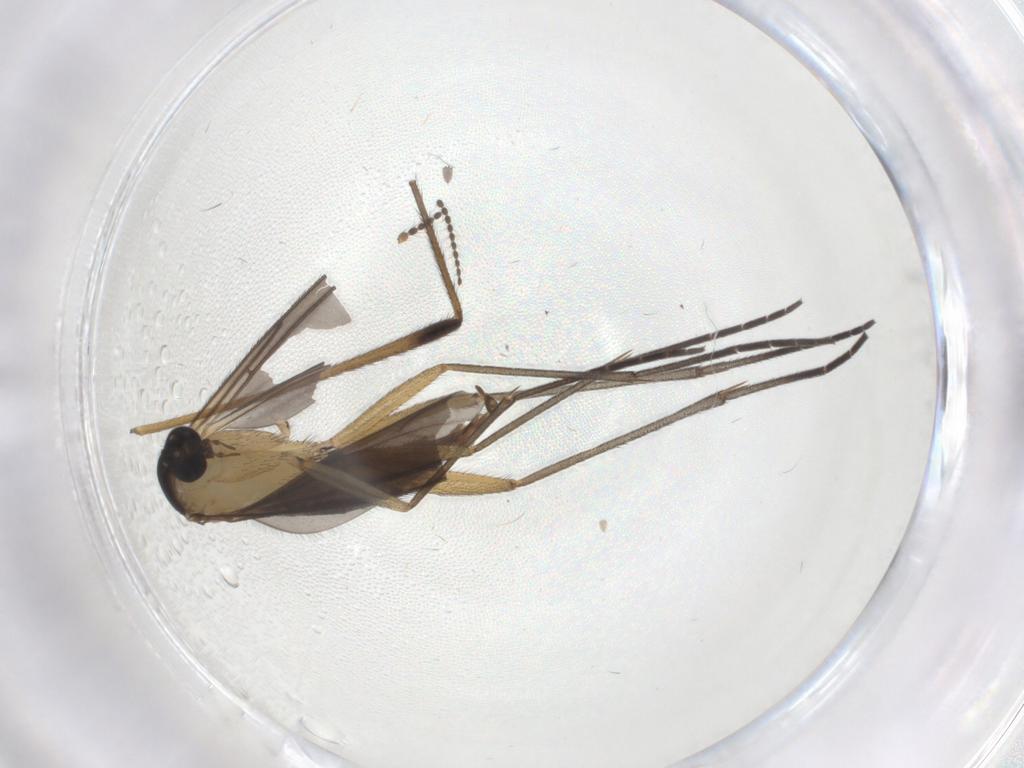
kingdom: Animalia
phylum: Arthropoda
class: Insecta
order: Diptera
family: Sciaridae
